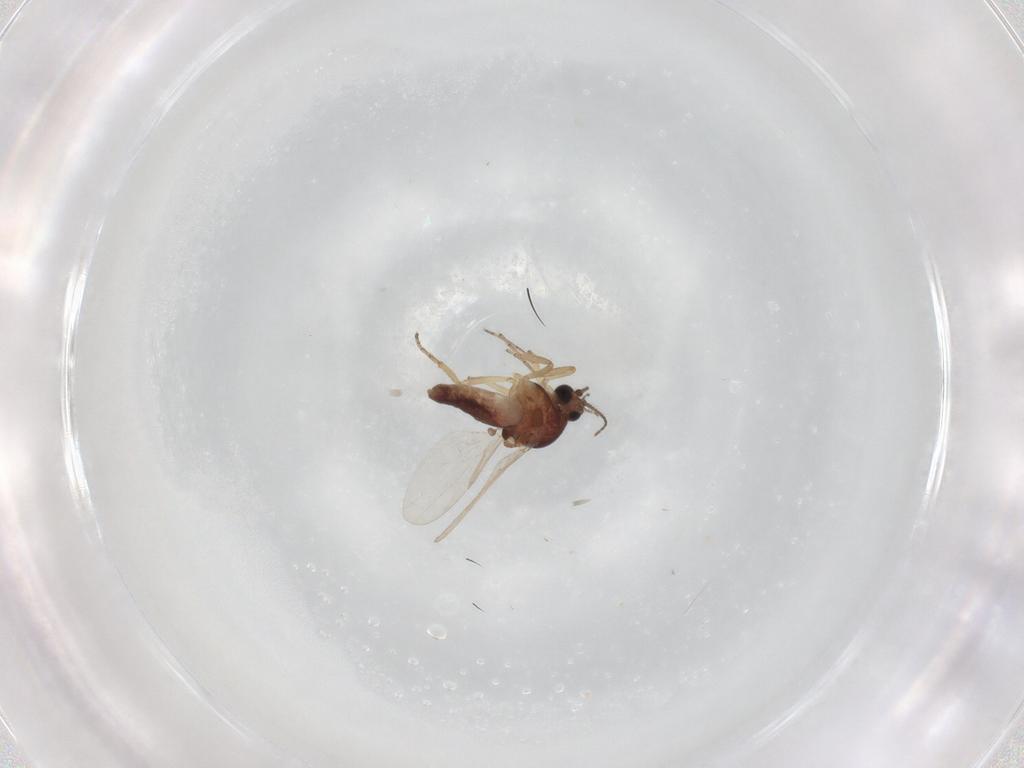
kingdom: Animalia
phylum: Arthropoda
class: Insecta
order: Diptera
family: Ceratopogonidae
